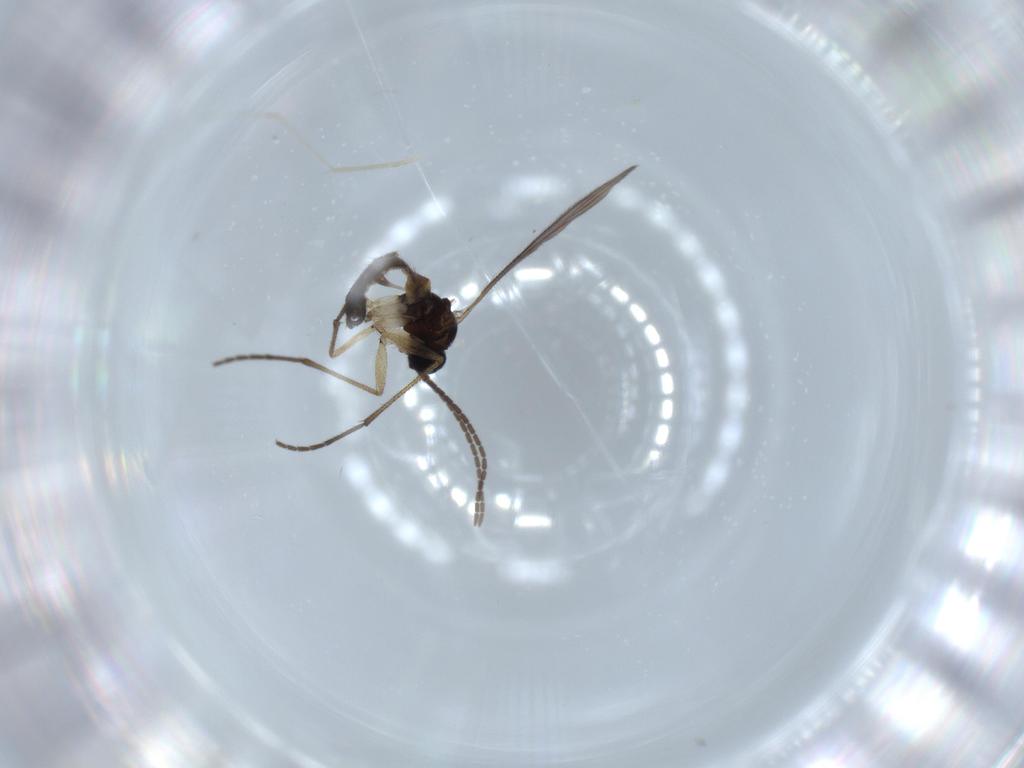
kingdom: Animalia
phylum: Arthropoda
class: Insecta
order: Diptera
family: Sciaridae
